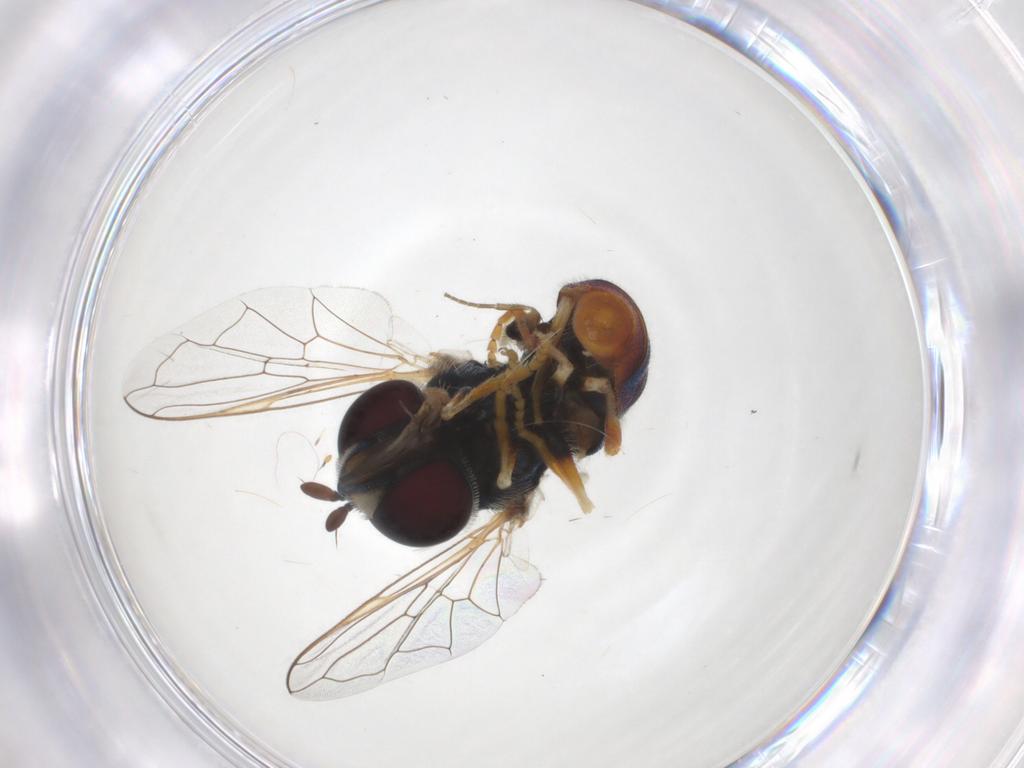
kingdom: Animalia
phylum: Arthropoda
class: Insecta
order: Diptera
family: Syrphidae
